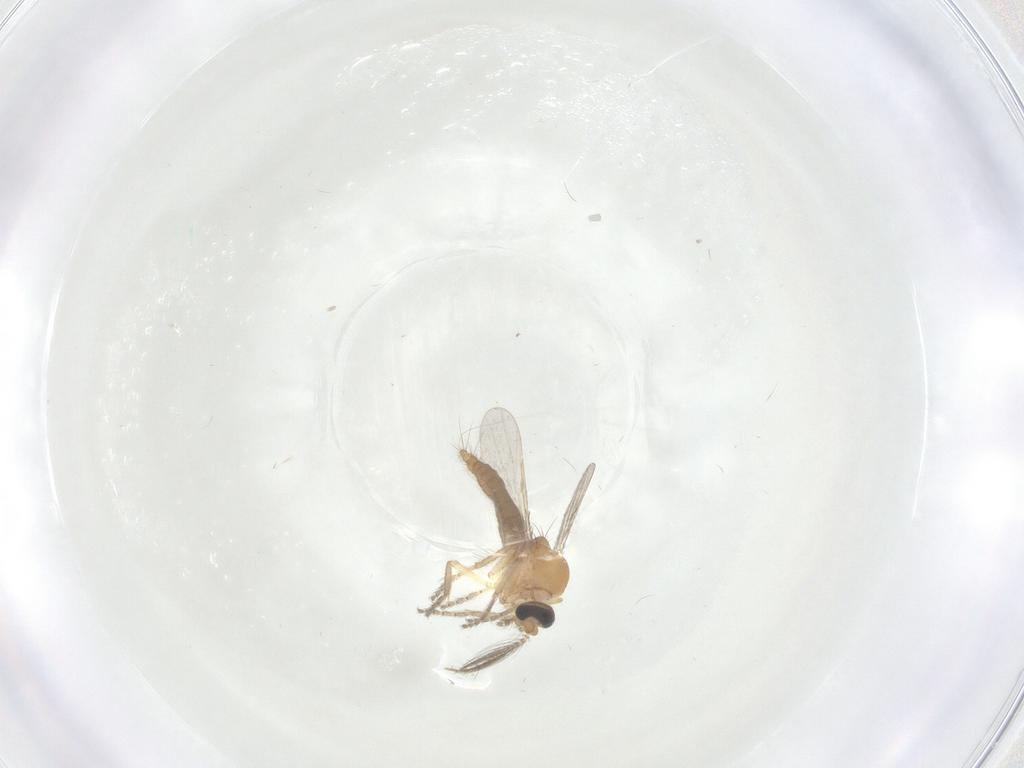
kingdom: Animalia
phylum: Arthropoda
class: Insecta
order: Diptera
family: Ceratopogonidae
